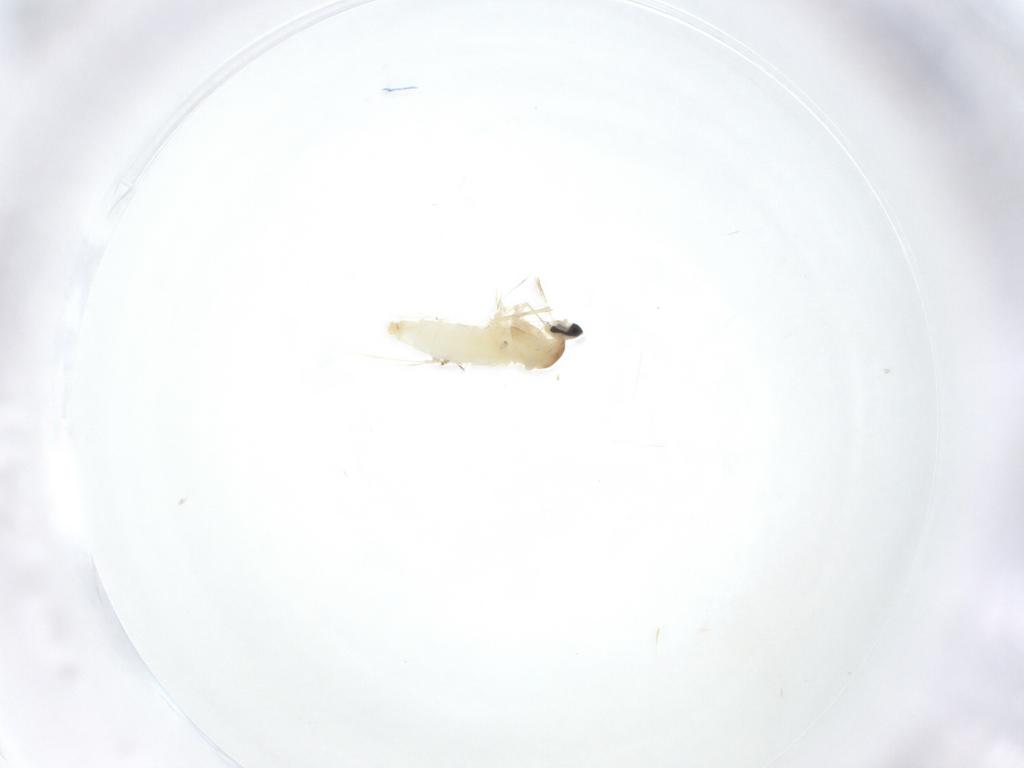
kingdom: Animalia
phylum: Arthropoda
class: Insecta
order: Diptera
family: Cecidomyiidae
